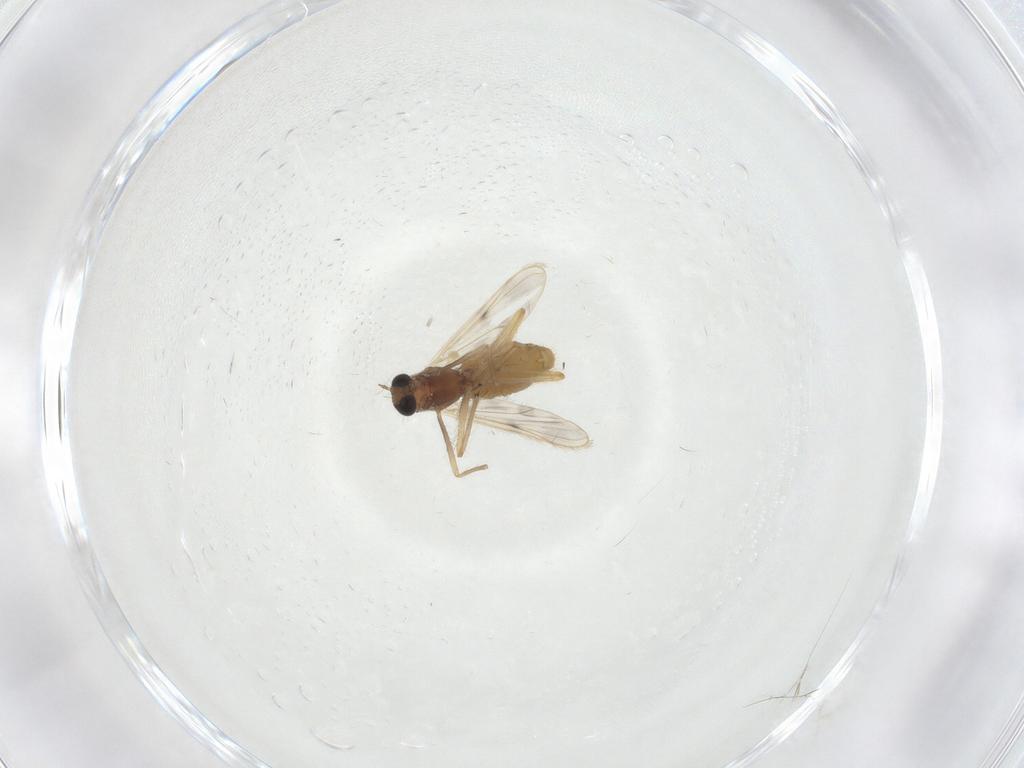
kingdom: Animalia
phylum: Arthropoda
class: Insecta
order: Diptera
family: Chironomidae
